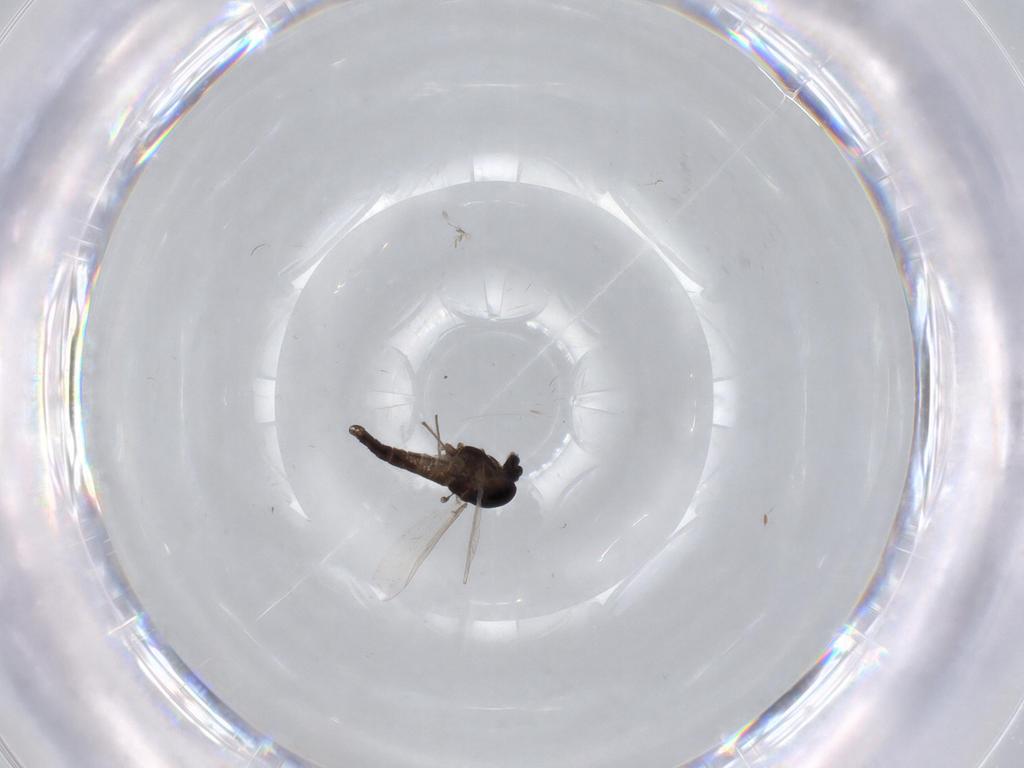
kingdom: Animalia
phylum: Arthropoda
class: Insecta
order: Diptera
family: Chironomidae
